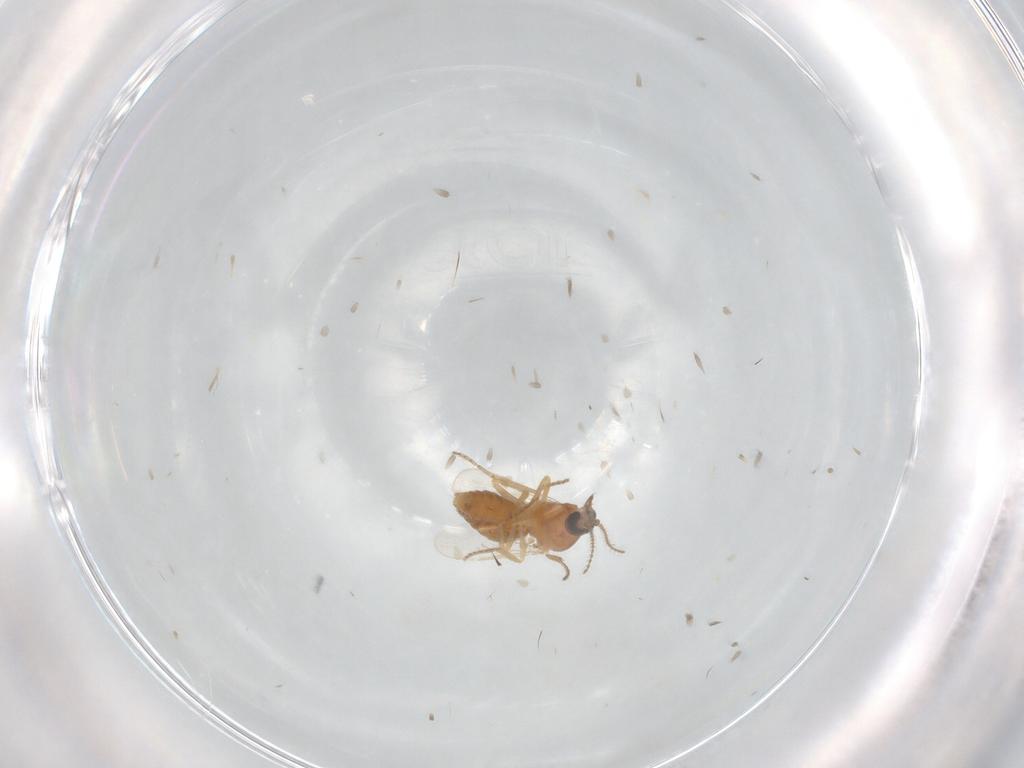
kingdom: Animalia
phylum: Arthropoda
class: Insecta
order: Diptera
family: Ceratopogonidae
